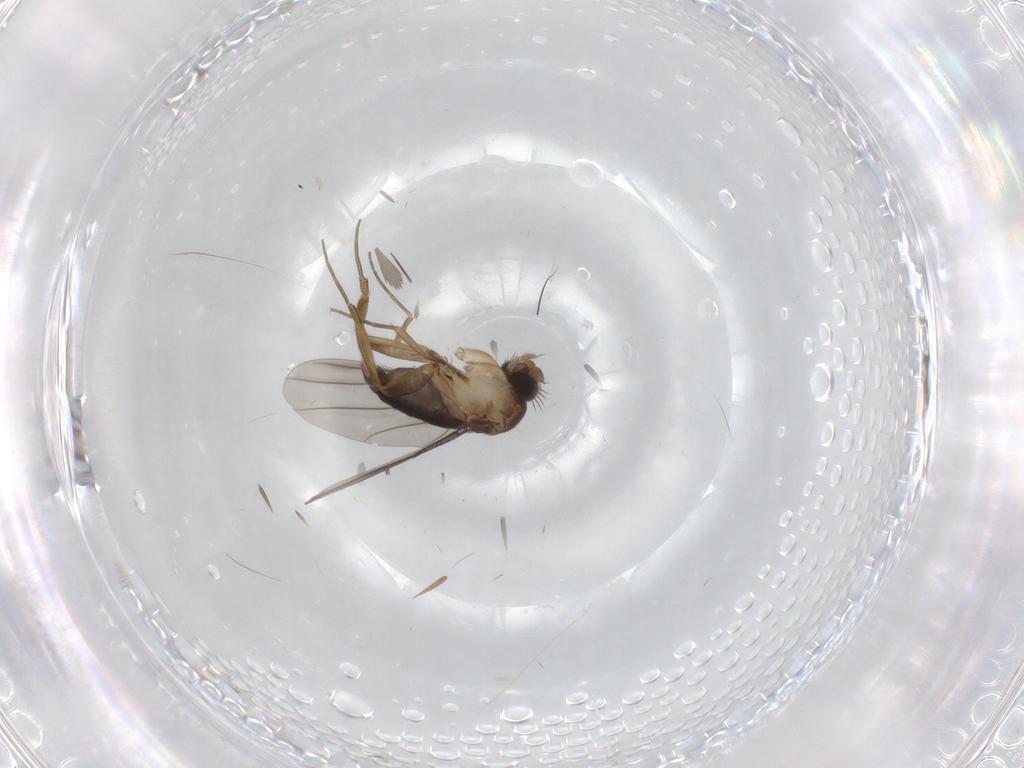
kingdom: Animalia
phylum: Arthropoda
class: Insecta
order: Diptera
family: Phoridae
